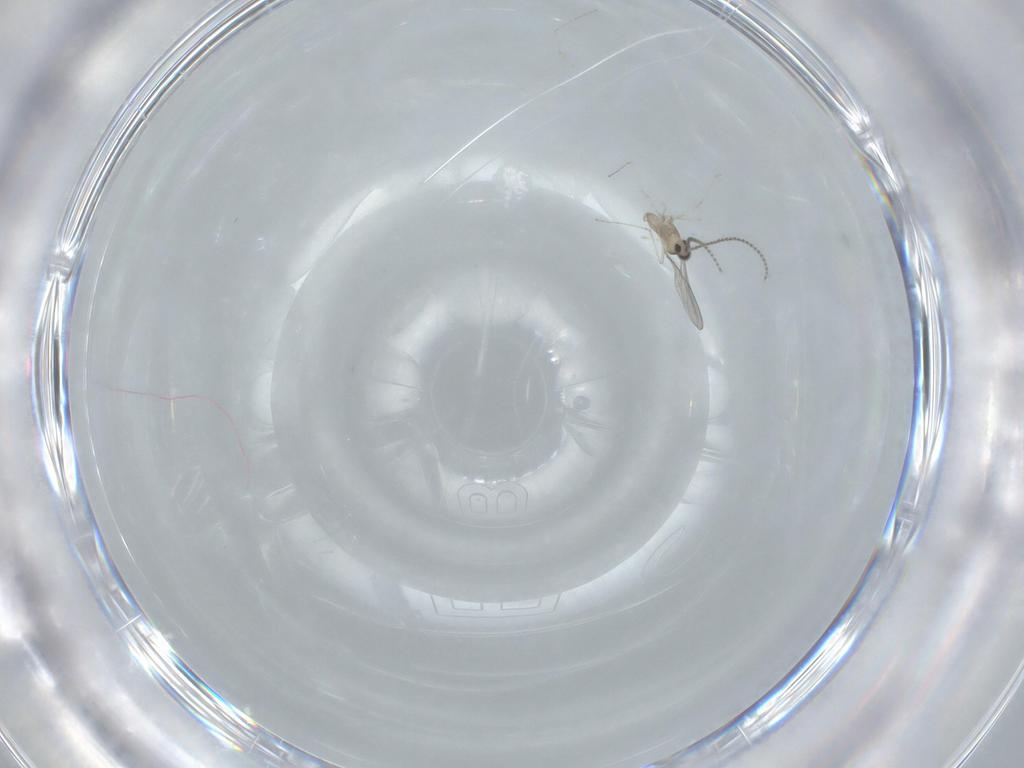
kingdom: Animalia
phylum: Arthropoda
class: Insecta
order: Diptera
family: Cecidomyiidae
